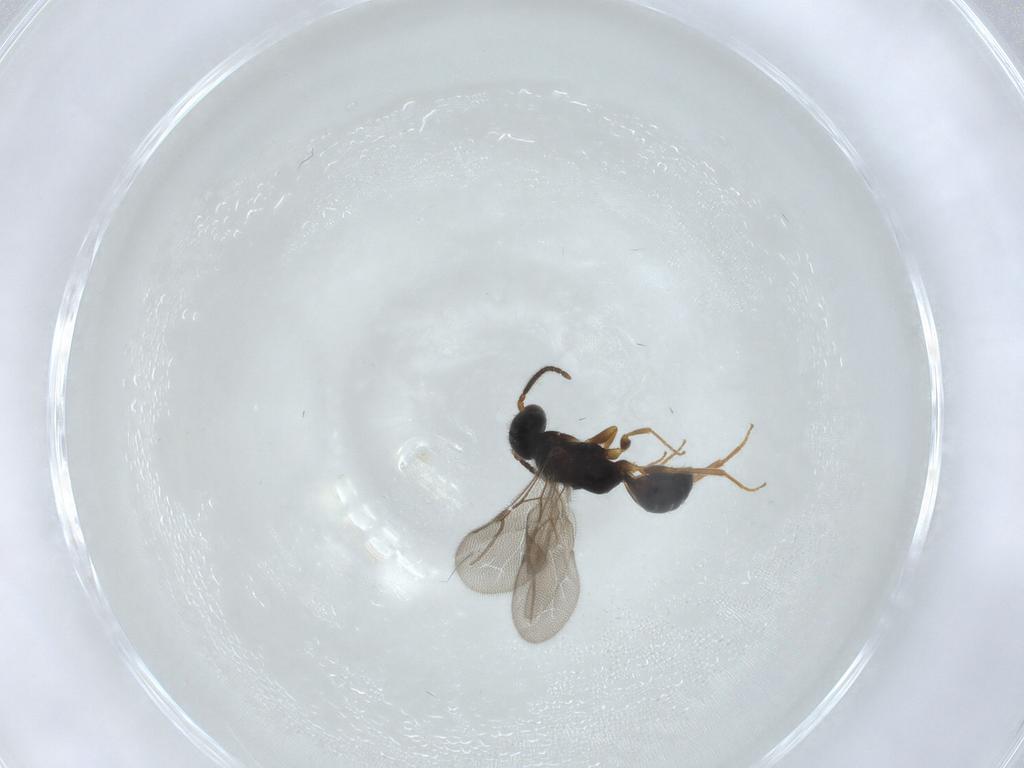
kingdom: Animalia
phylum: Arthropoda
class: Insecta
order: Hymenoptera
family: Bethylidae
